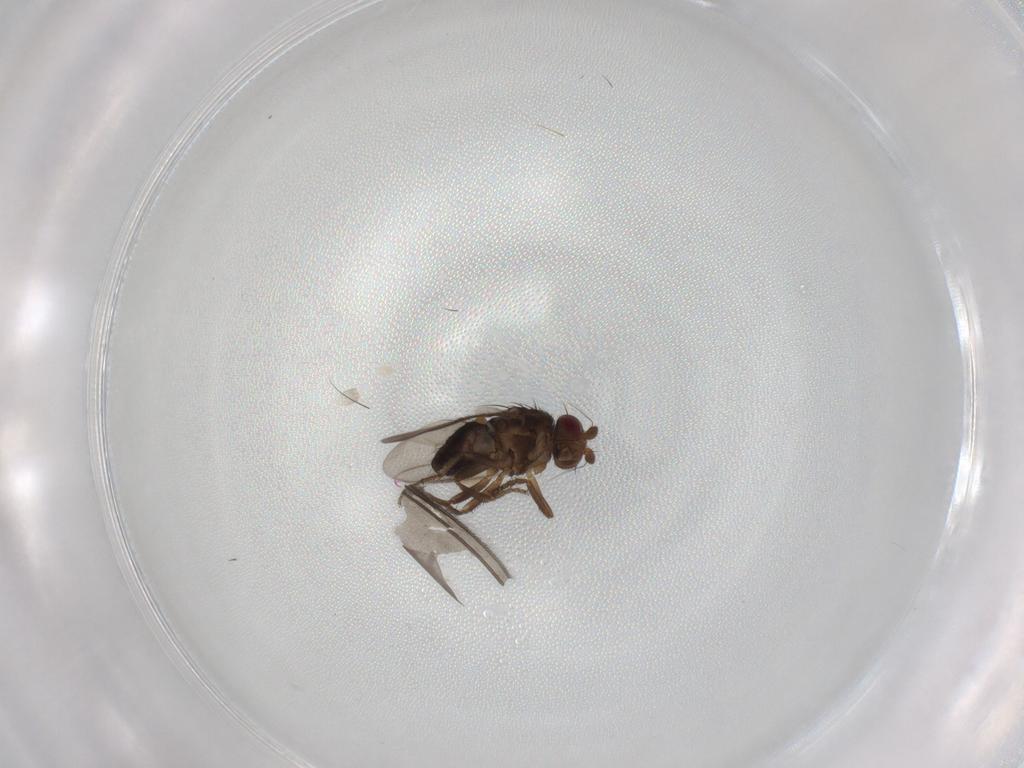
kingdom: Animalia
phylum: Arthropoda
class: Insecta
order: Diptera
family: Sphaeroceridae
